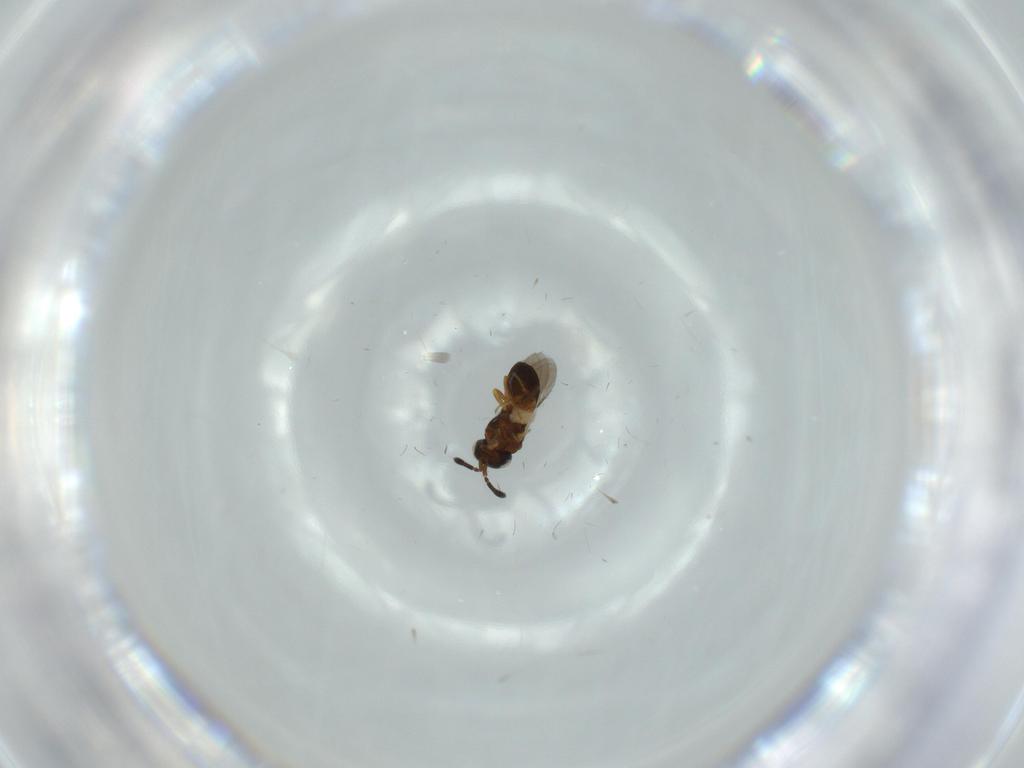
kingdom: Animalia
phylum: Arthropoda
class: Insecta
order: Hymenoptera
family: Scelionidae
